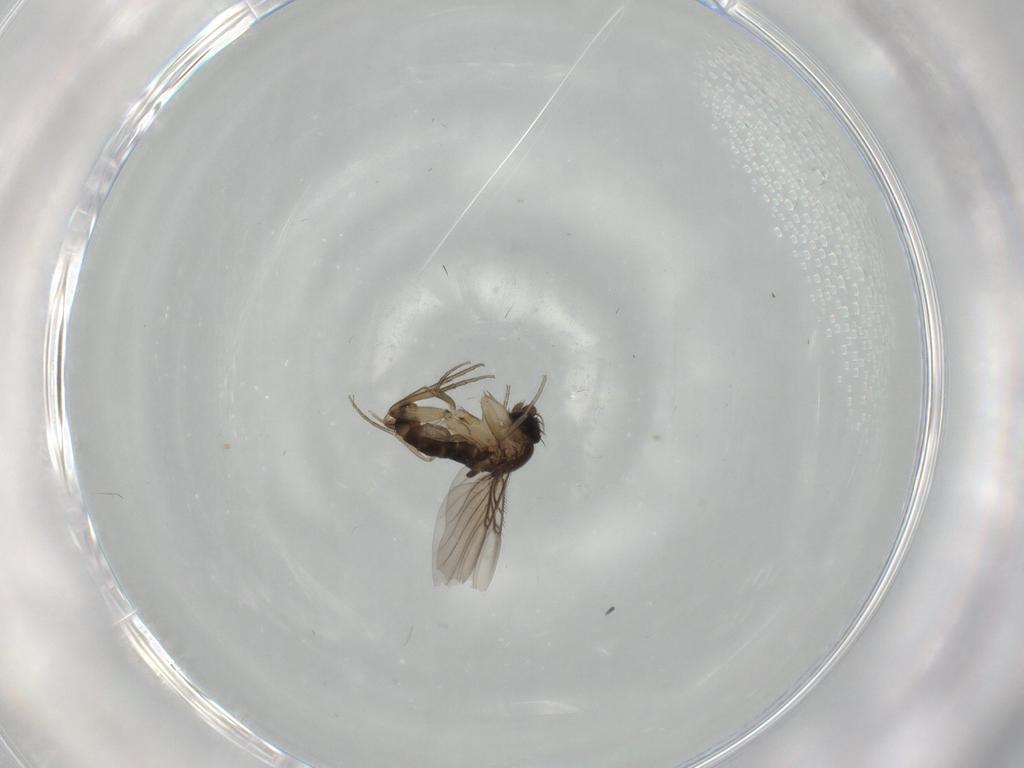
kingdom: Animalia
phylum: Arthropoda
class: Insecta
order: Diptera
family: Phoridae
